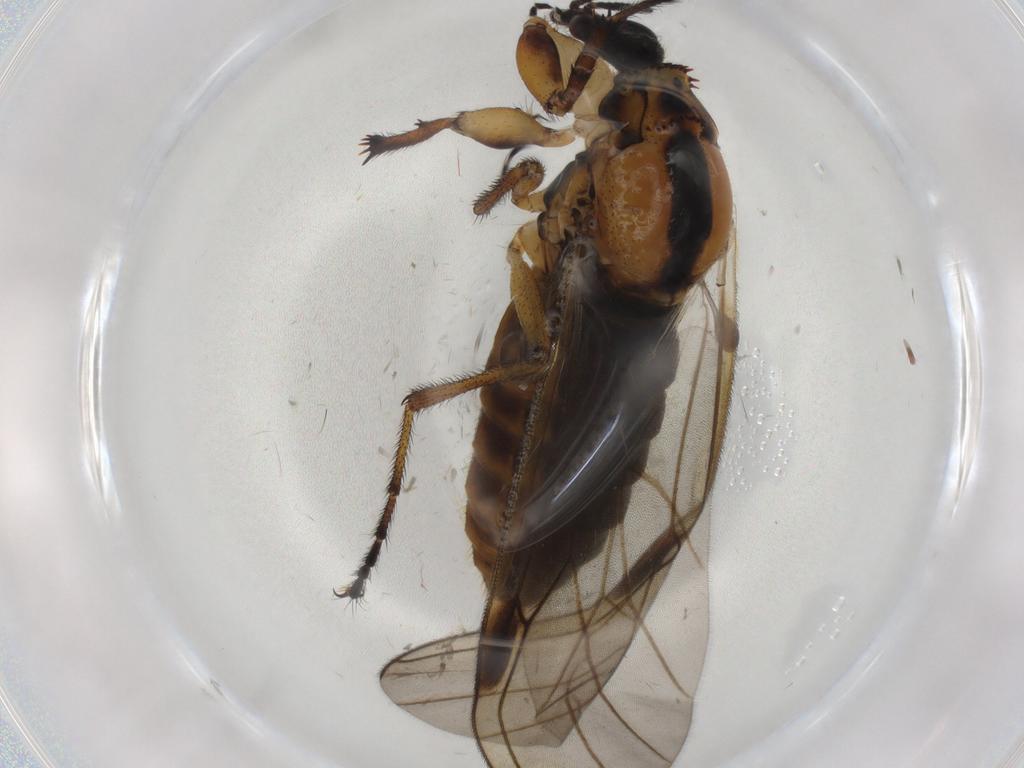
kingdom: Animalia
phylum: Arthropoda
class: Insecta
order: Diptera
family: Bibionidae
